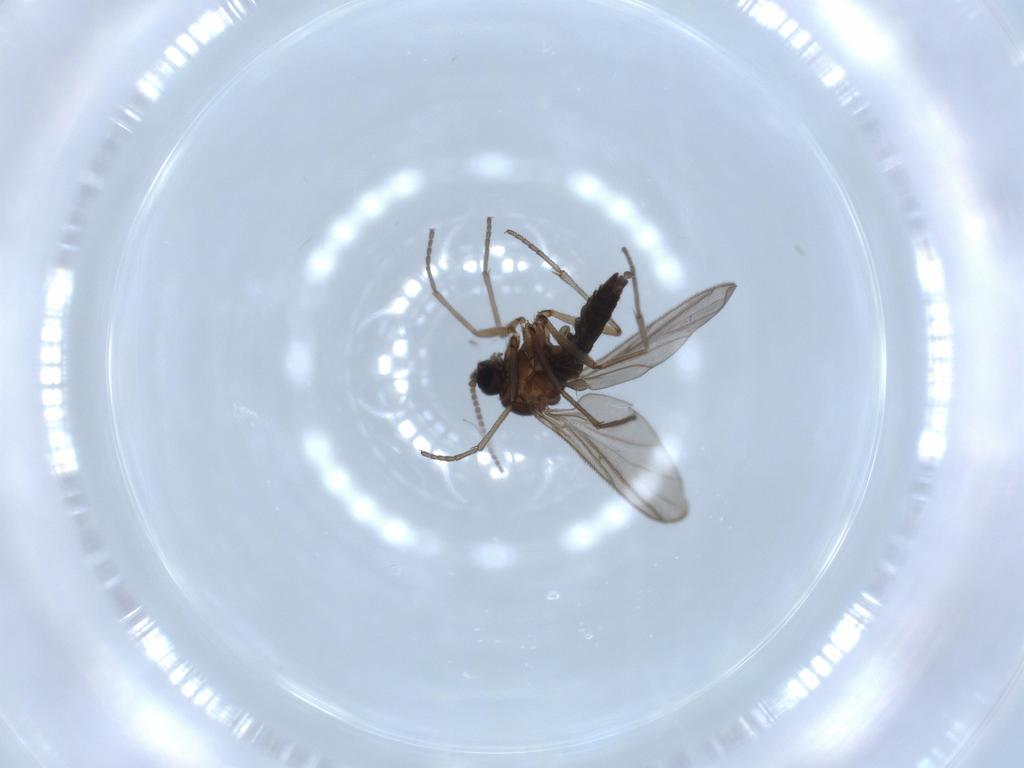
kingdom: Animalia
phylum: Arthropoda
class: Insecta
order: Diptera
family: Sciaridae
